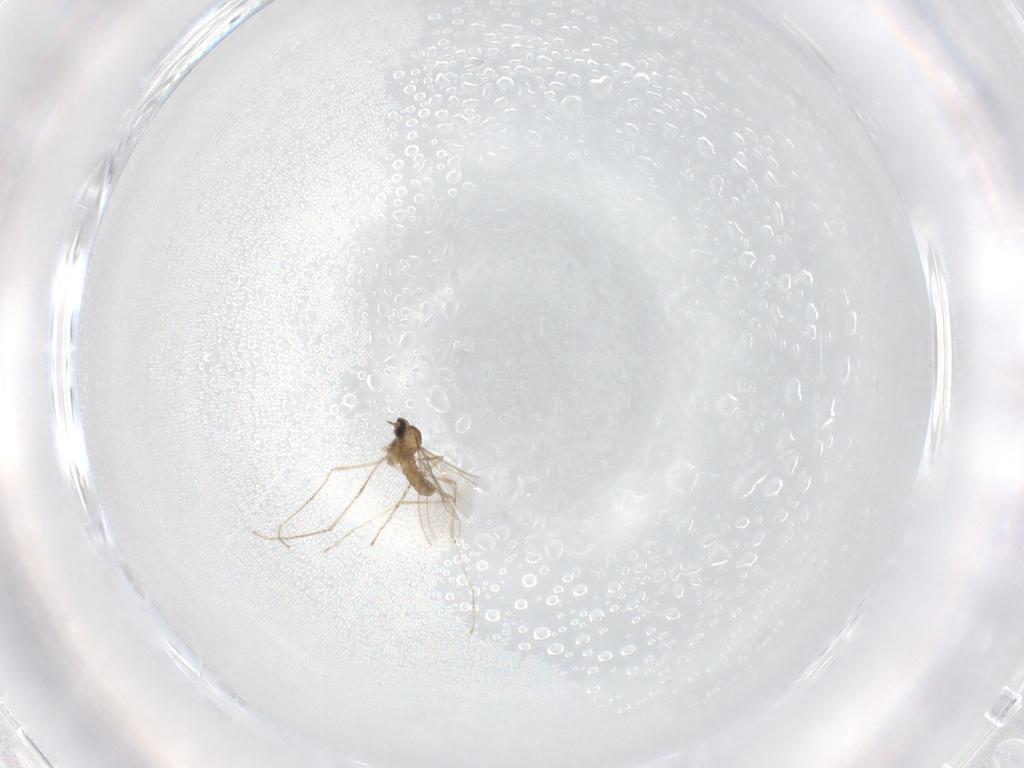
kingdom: Animalia
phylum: Arthropoda
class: Insecta
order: Diptera
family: Cecidomyiidae
